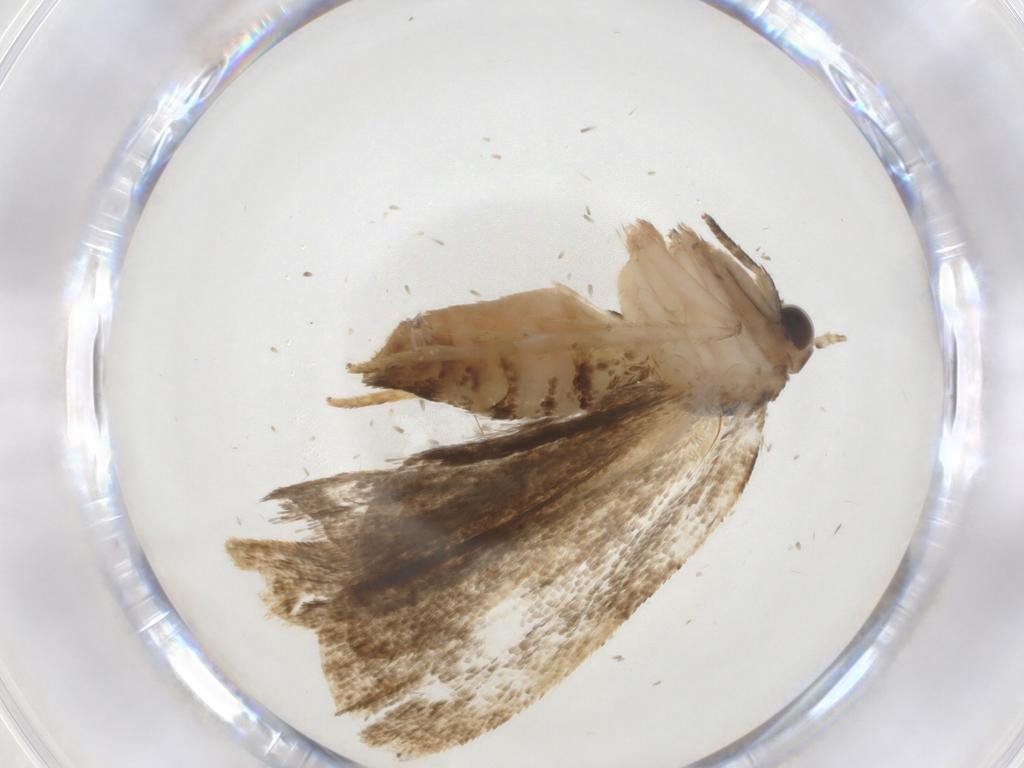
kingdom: Animalia
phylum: Arthropoda
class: Insecta
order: Lepidoptera
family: Tortricidae
